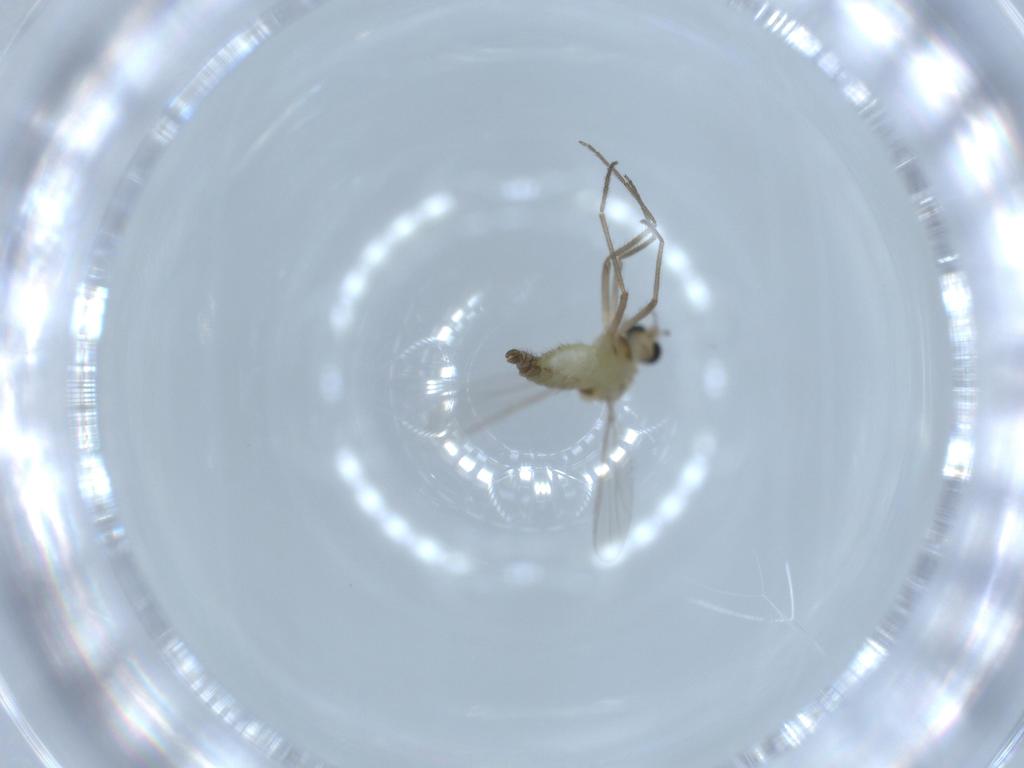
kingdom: Animalia
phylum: Arthropoda
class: Insecta
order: Diptera
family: Chironomidae
